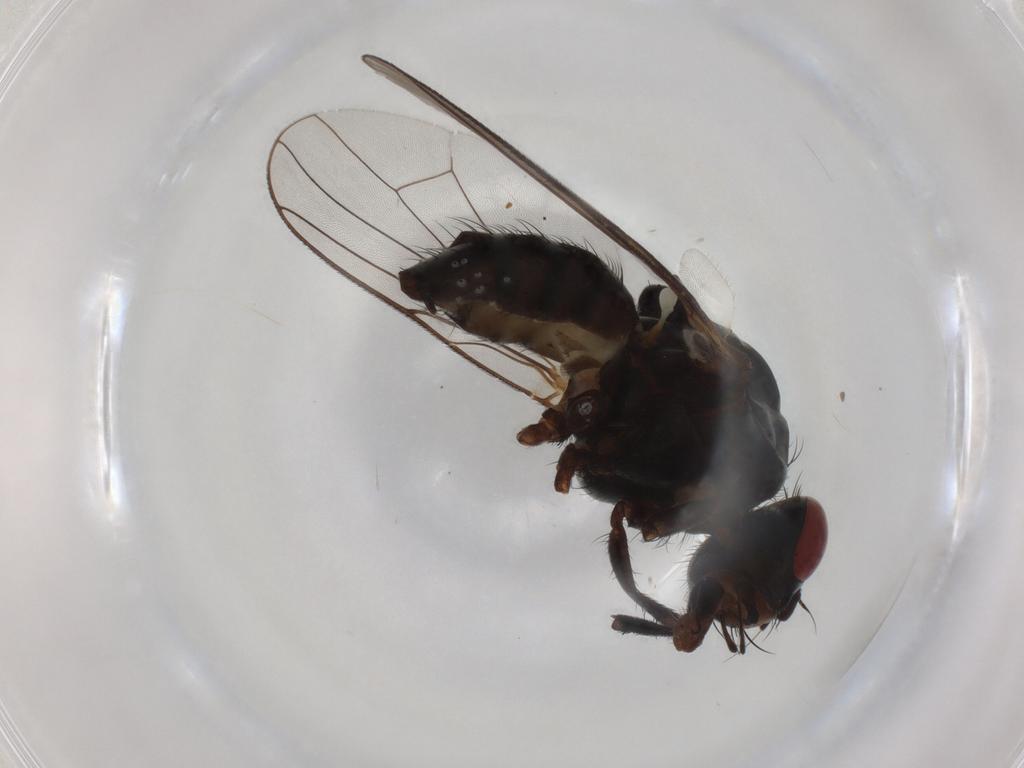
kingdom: Animalia
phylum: Arthropoda
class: Insecta
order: Diptera
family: Anthomyiidae
